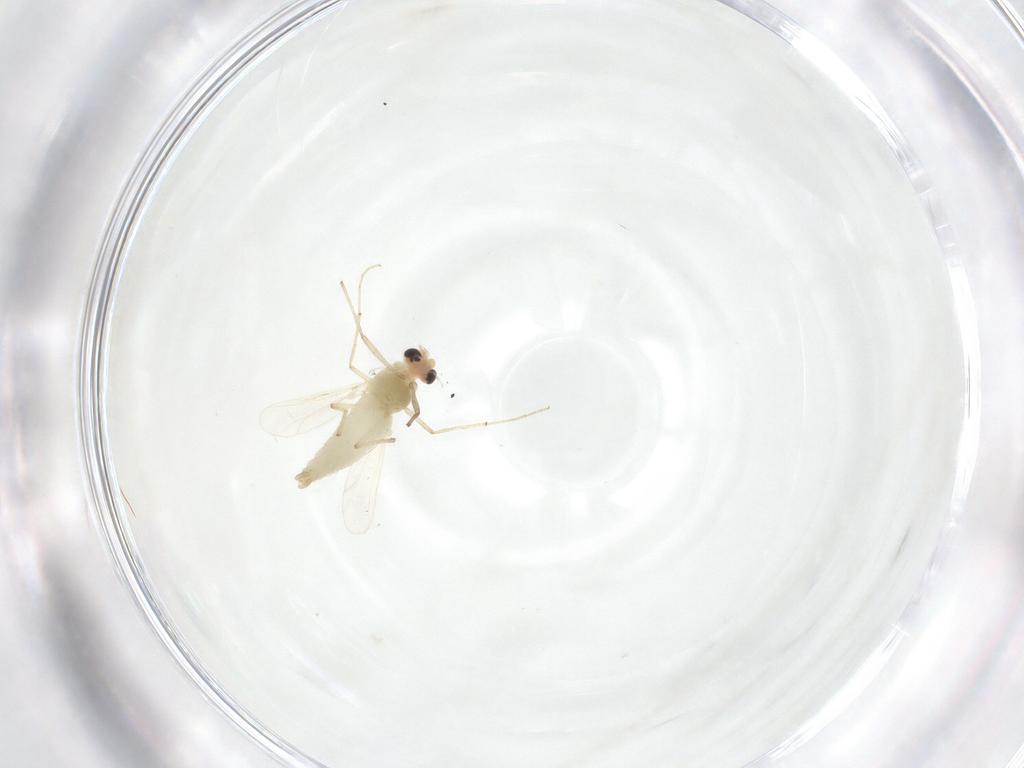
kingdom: Animalia
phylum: Arthropoda
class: Insecta
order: Diptera
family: Chironomidae
